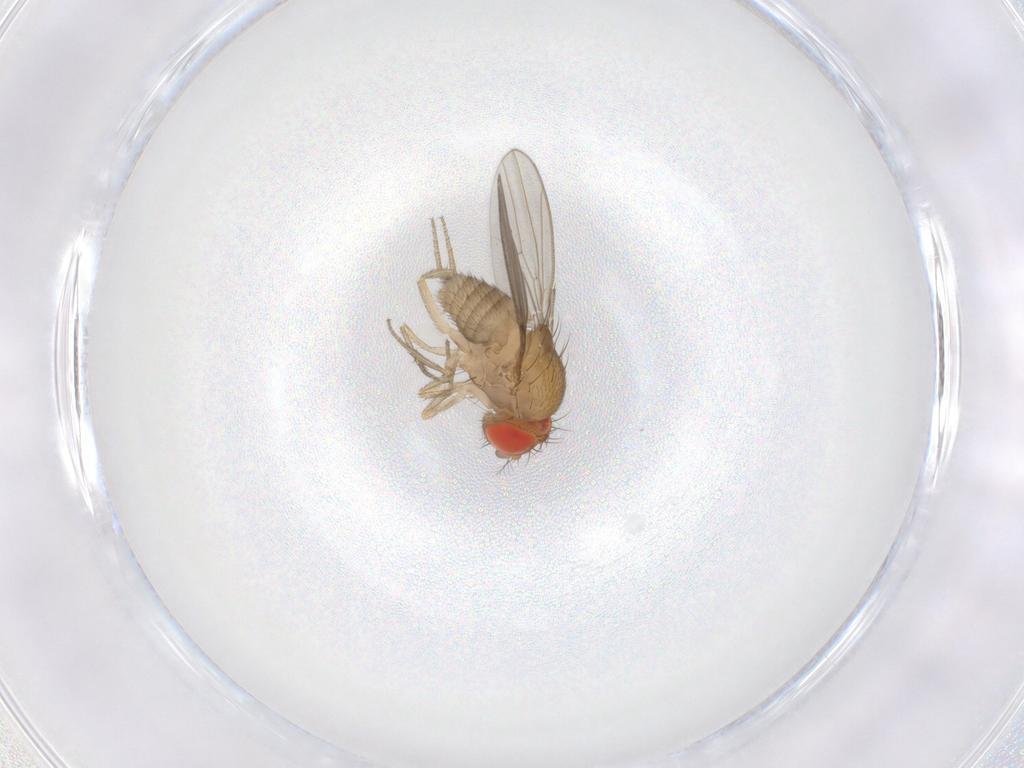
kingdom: Animalia
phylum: Arthropoda
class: Insecta
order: Diptera
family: Drosophilidae
